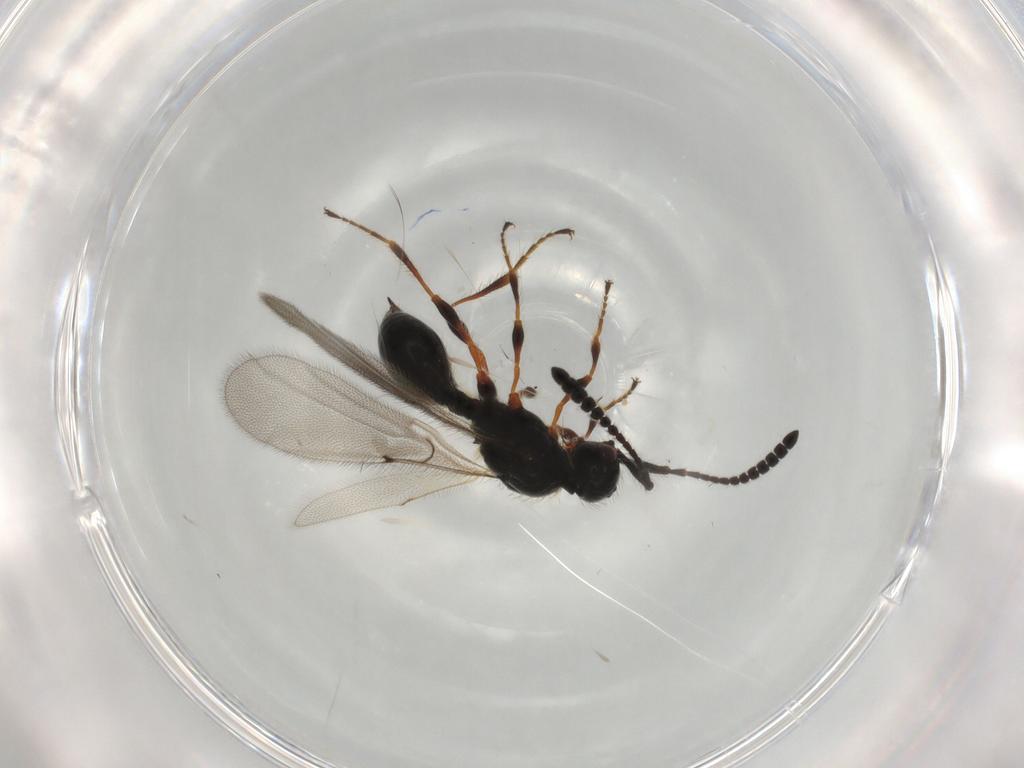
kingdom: Animalia
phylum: Arthropoda
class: Insecta
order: Hymenoptera
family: Diapriidae
